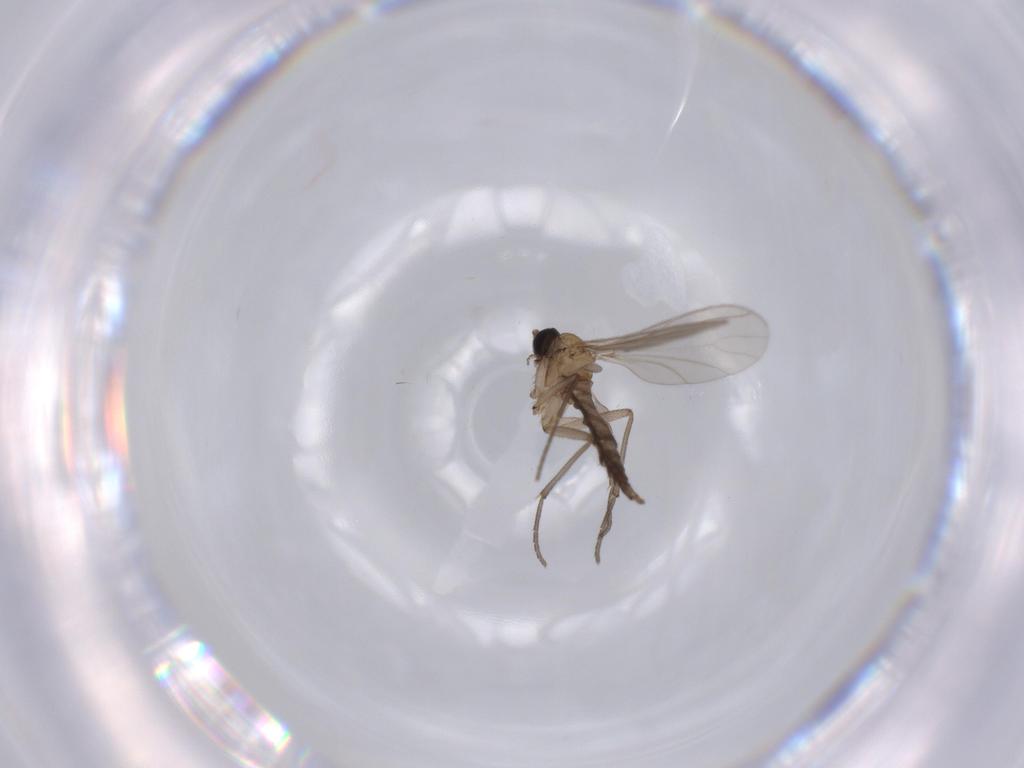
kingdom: Animalia
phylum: Arthropoda
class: Insecta
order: Diptera
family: Sciaridae
